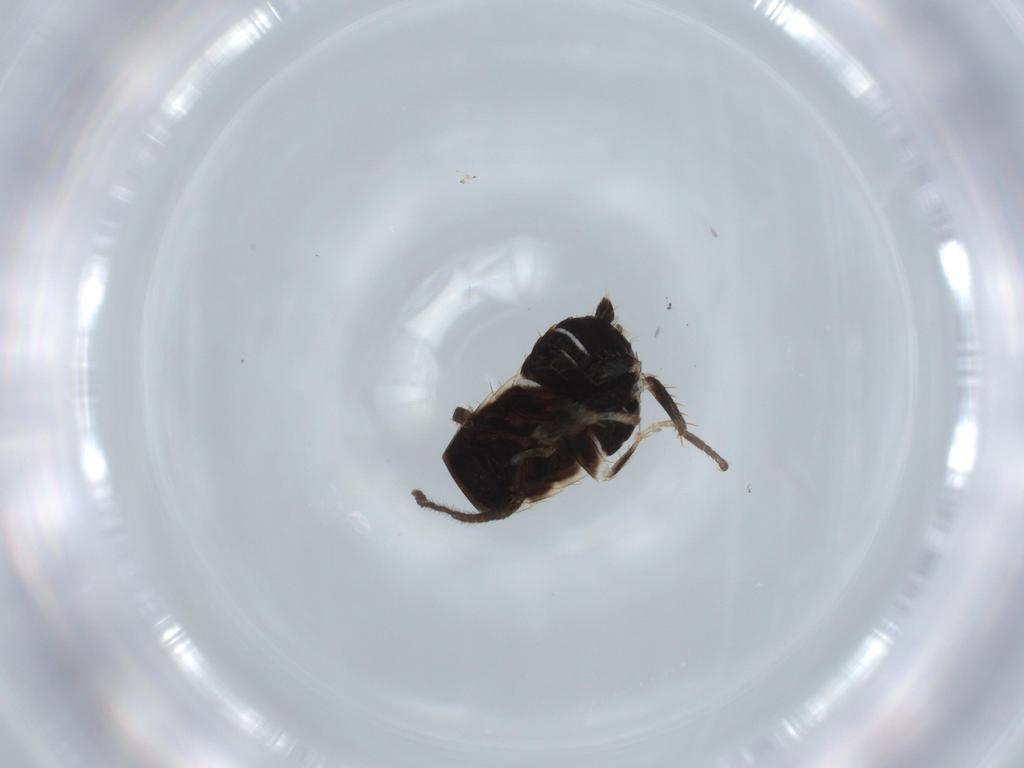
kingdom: Animalia
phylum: Arthropoda
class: Insecta
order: Blattodea
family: Ectobiidae
